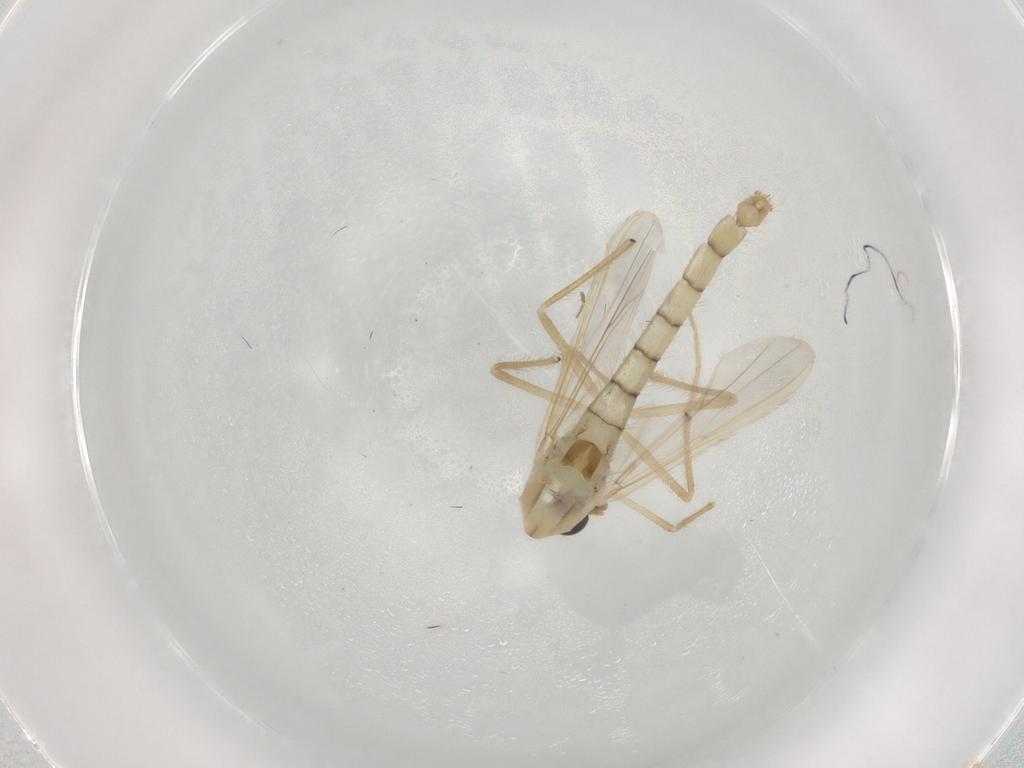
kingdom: Animalia
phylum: Arthropoda
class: Insecta
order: Diptera
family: Chironomidae
